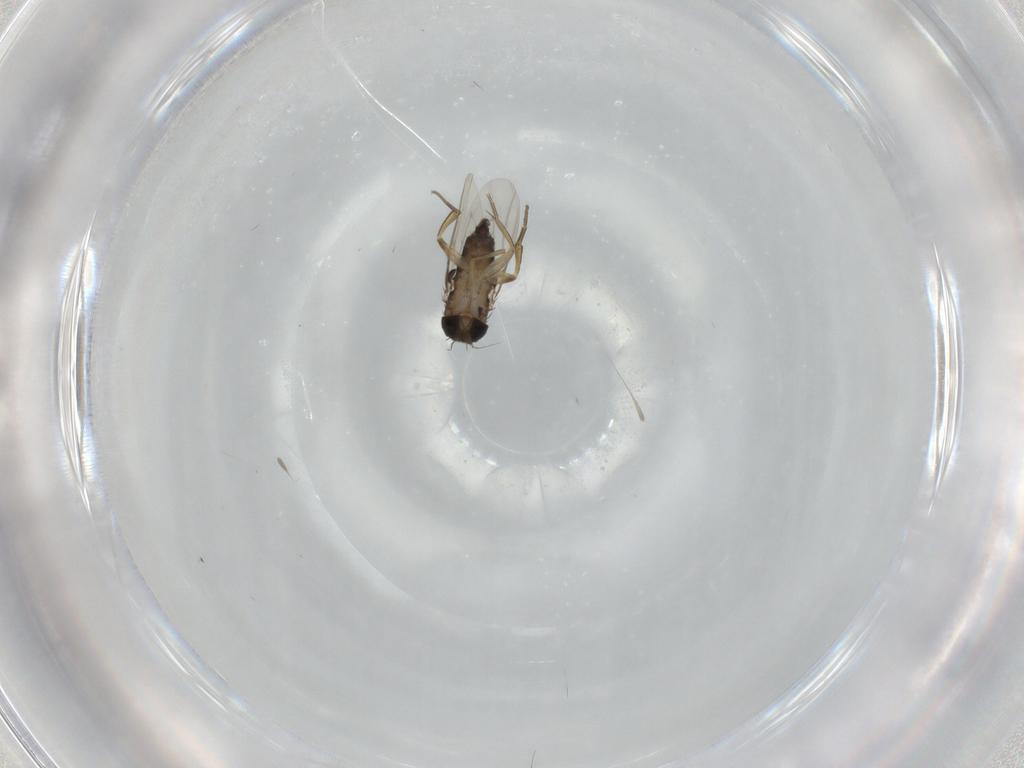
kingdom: Animalia
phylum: Arthropoda
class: Insecta
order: Diptera
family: Phoridae
